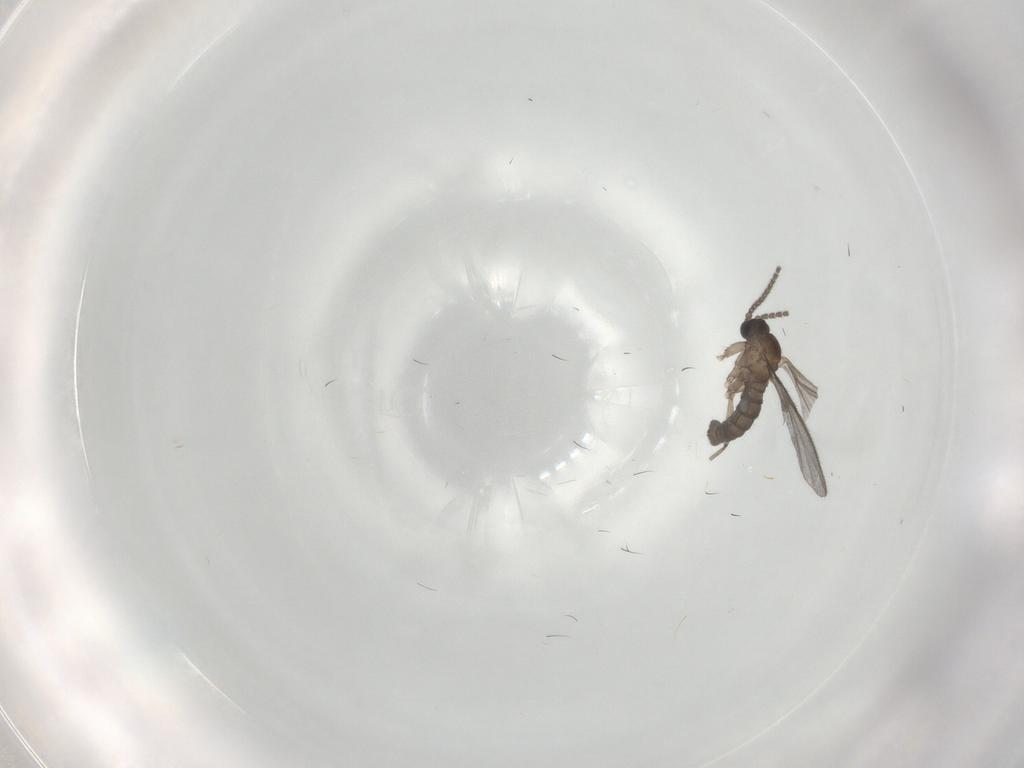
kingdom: Animalia
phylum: Arthropoda
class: Insecta
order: Diptera
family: Sciaridae
